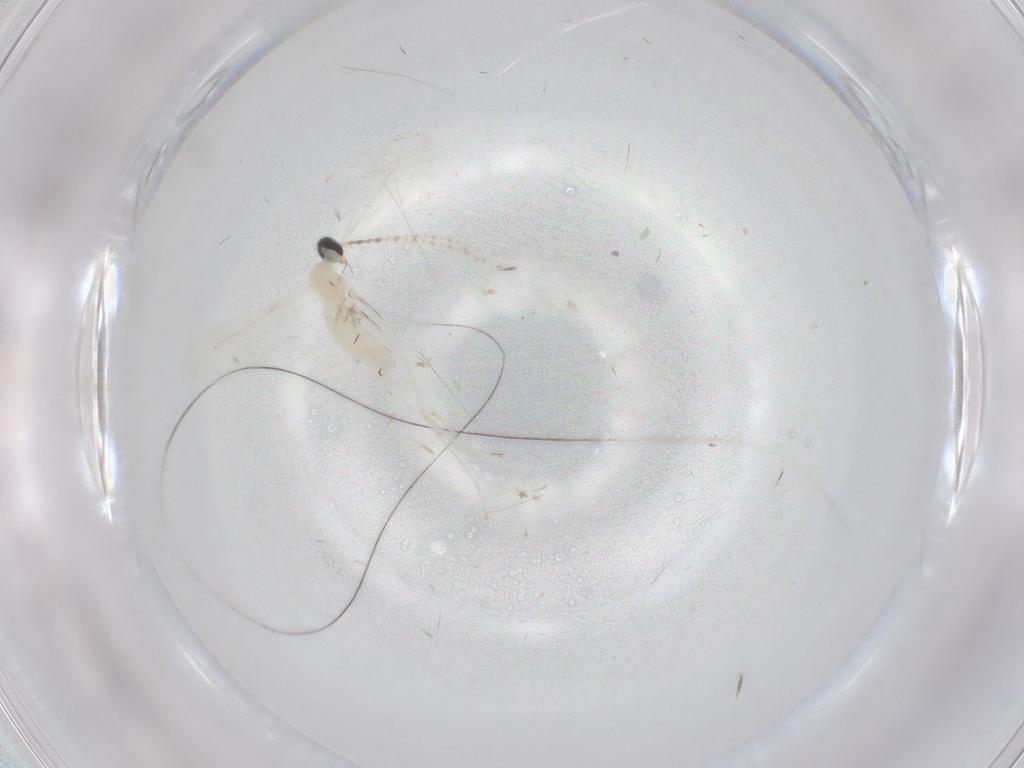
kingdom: Animalia
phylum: Arthropoda
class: Insecta
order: Diptera
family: Cecidomyiidae
